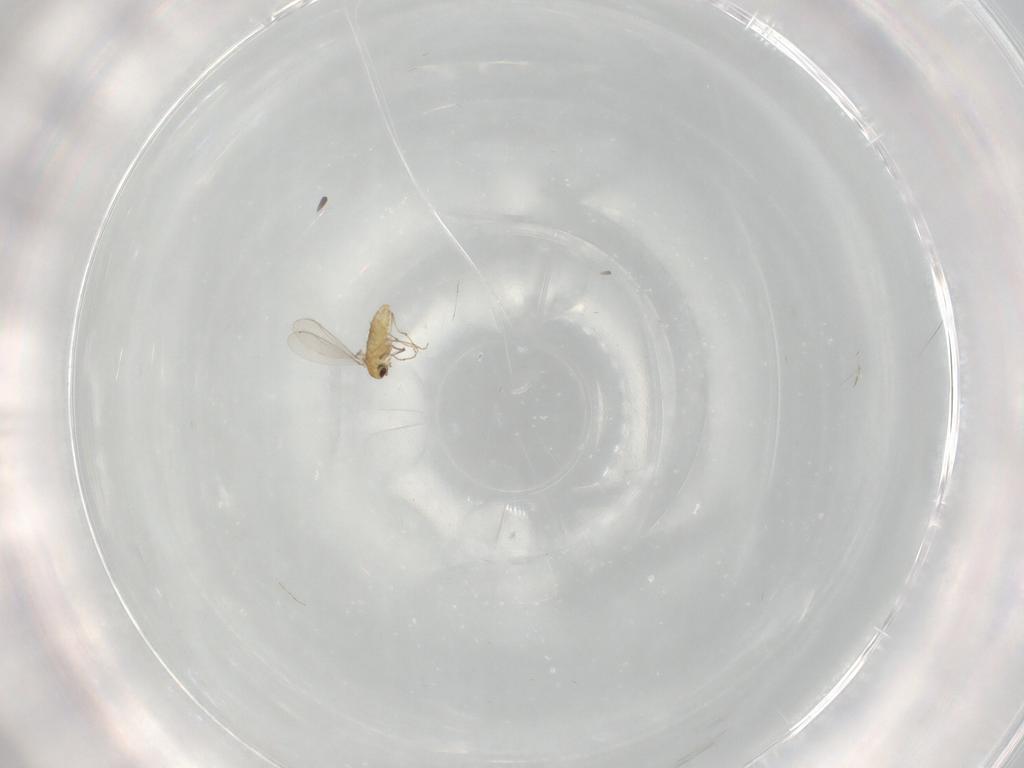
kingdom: Animalia
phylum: Arthropoda
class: Insecta
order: Diptera
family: Chironomidae
